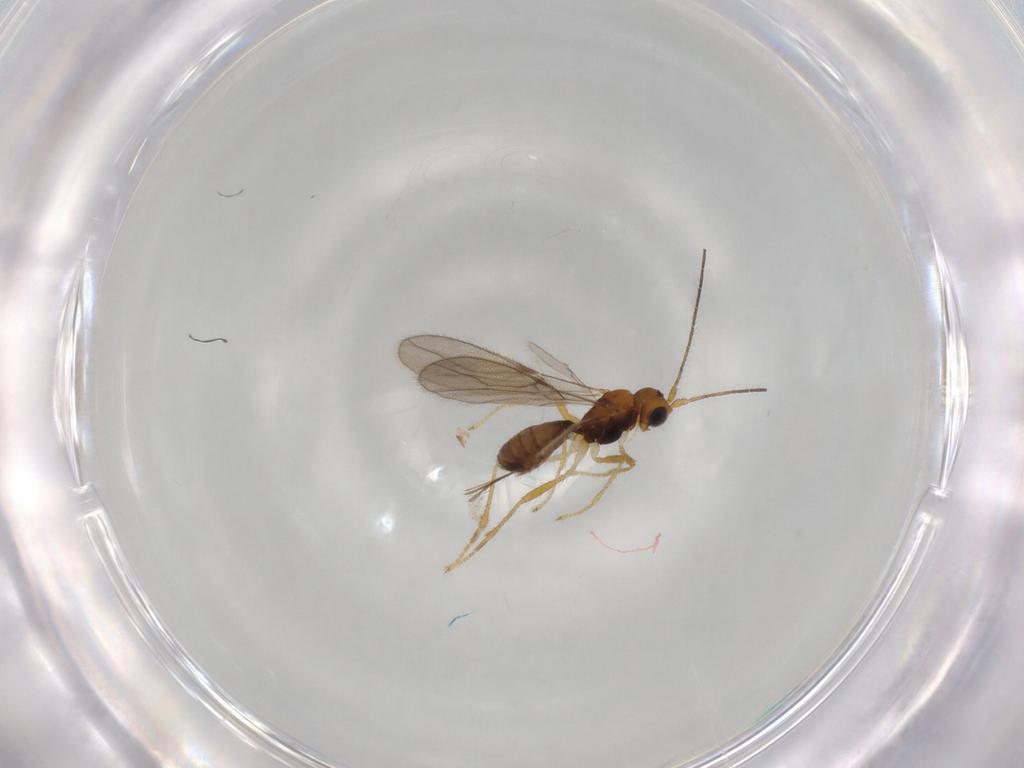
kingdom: Animalia
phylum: Arthropoda
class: Insecta
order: Hymenoptera
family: Braconidae
